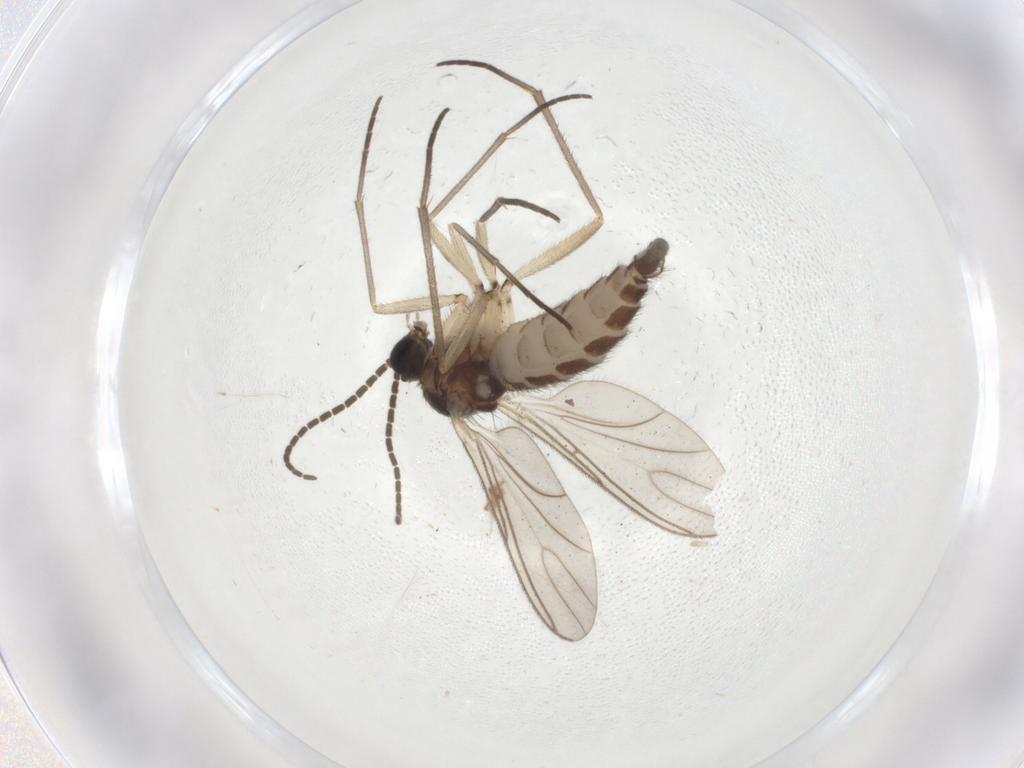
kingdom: Animalia
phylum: Arthropoda
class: Insecta
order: Diptera
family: Sciaridae
